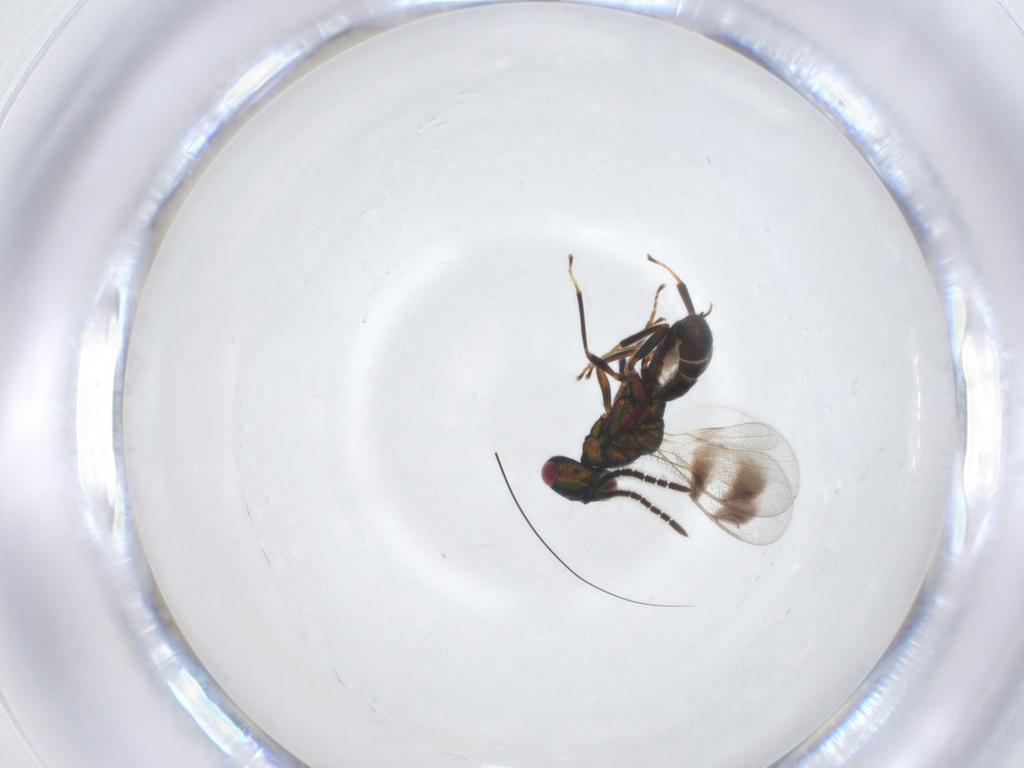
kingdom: Animalia
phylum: Arthropoda
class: Insecta
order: Hymenoptera
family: Pteromalidae
